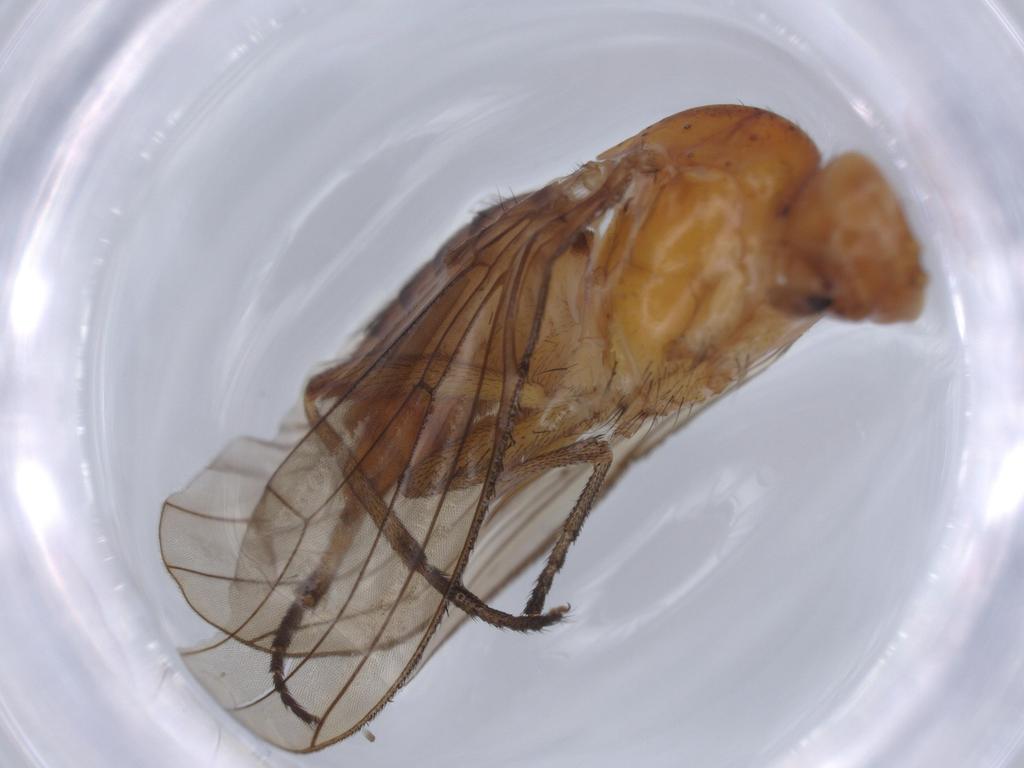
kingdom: Animalia
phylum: Arthropoda
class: Insecta
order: Diptera
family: Sciaridae
